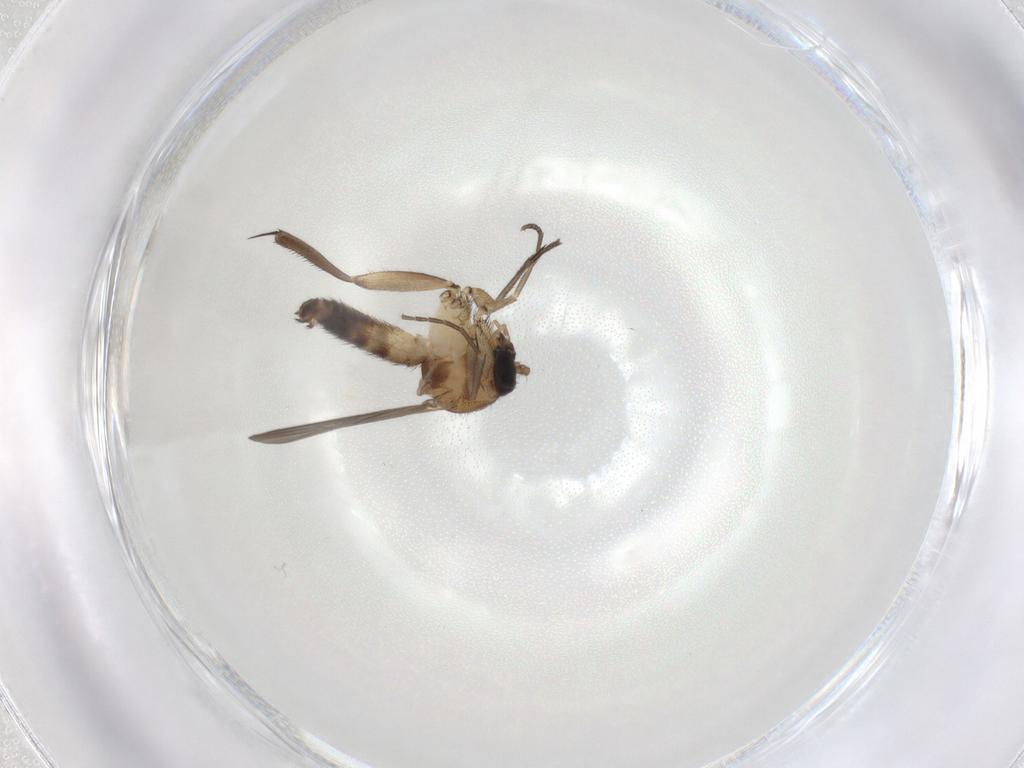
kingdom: Animalia
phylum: Arthropoda
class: Insecta
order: Diptera
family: Mycetophilidae
